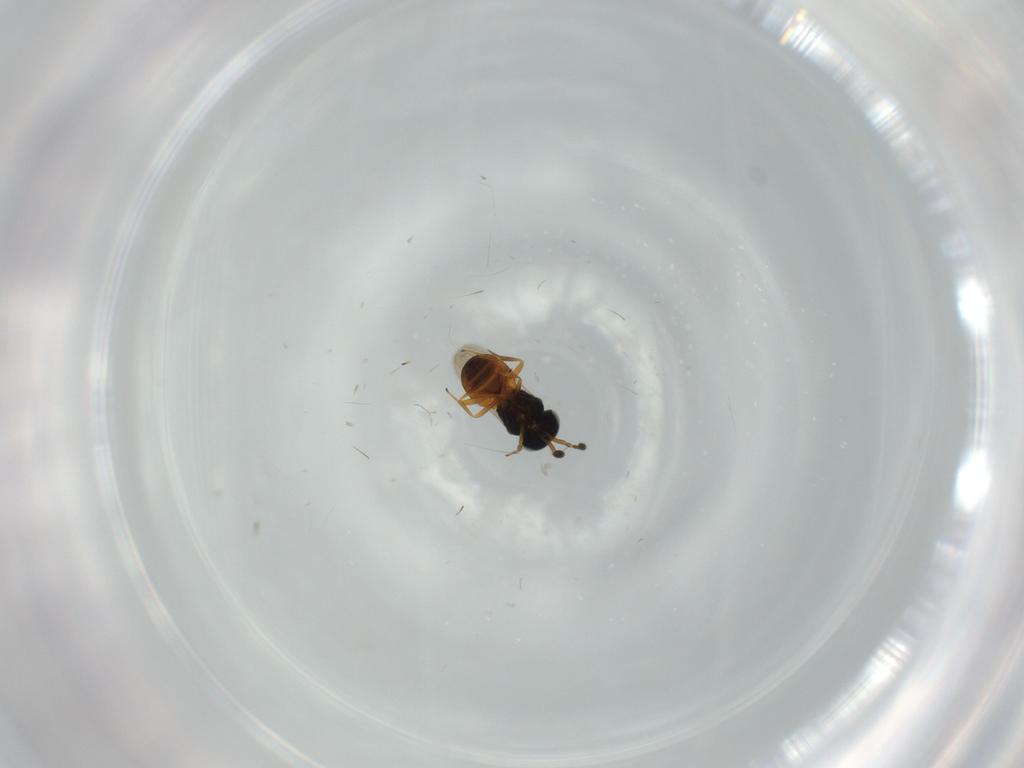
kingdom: Animalia
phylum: Arthropoda
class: Insecta
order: Hymenoptera
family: Scelionidae
